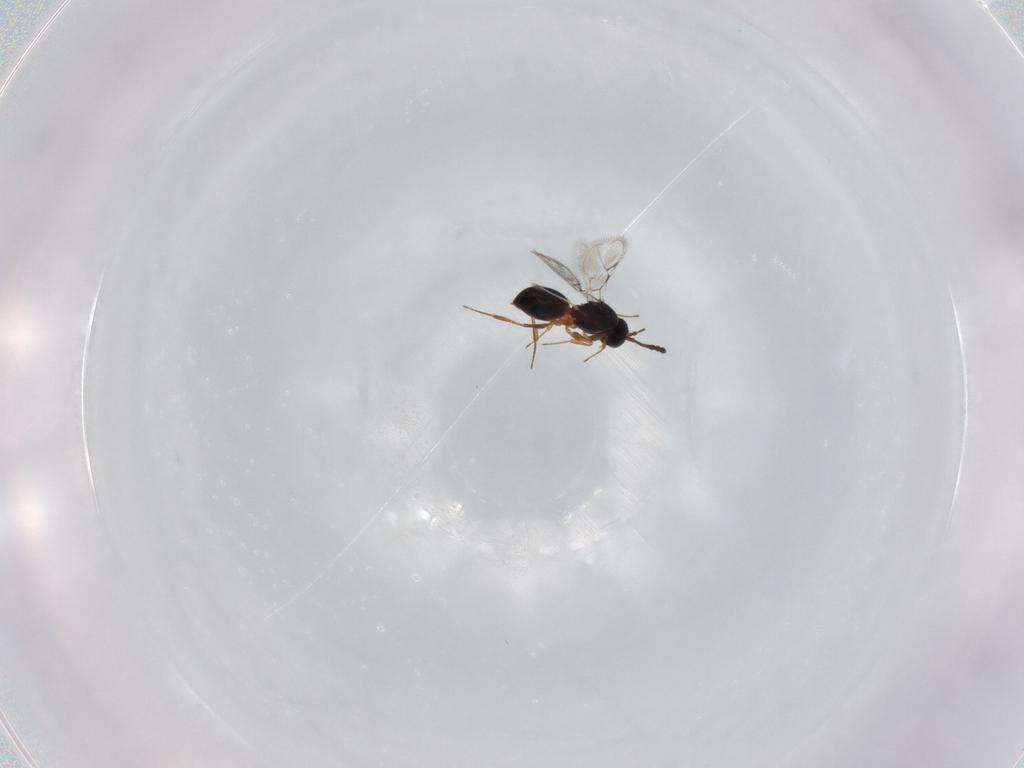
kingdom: Animalia
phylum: Arthropoda
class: Insecta
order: Hymenoptera
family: Figitidae
